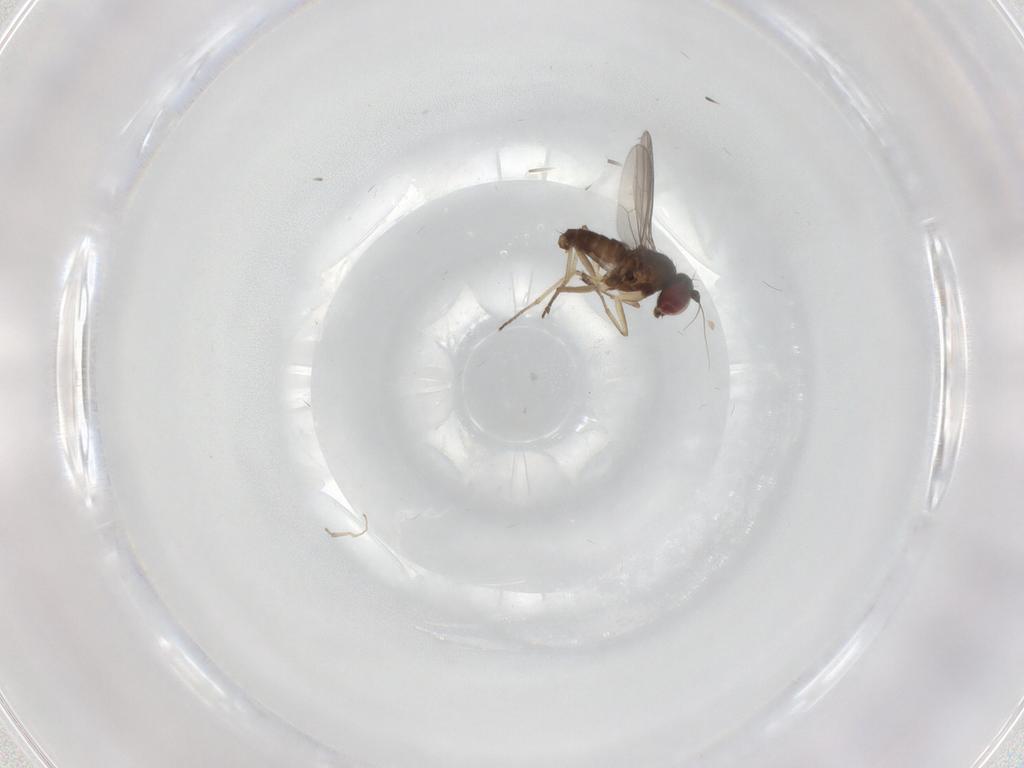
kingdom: Animalia
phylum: Arthropoda
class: Insecta
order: Diptera
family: Dolichopodidae
